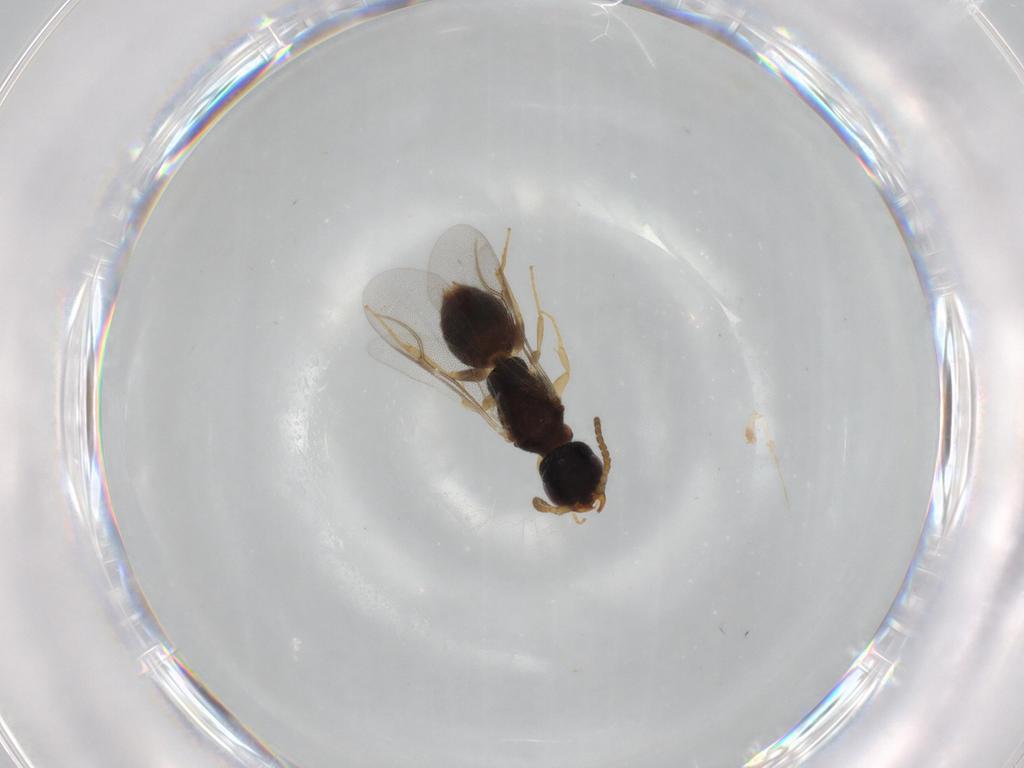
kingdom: Animalia
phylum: Arthropoda
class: Insecta
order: Hymenoptera
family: Bethylidae
